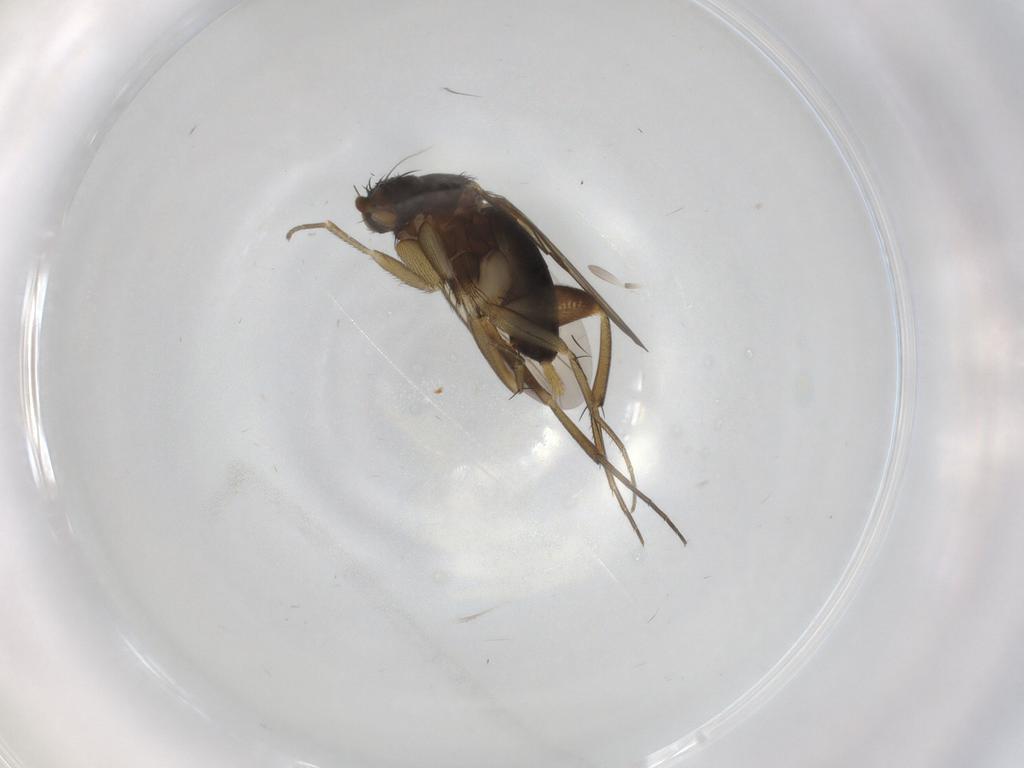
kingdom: Animalia
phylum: Arthropoda
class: Insecta
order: Diptera
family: Phoridae
